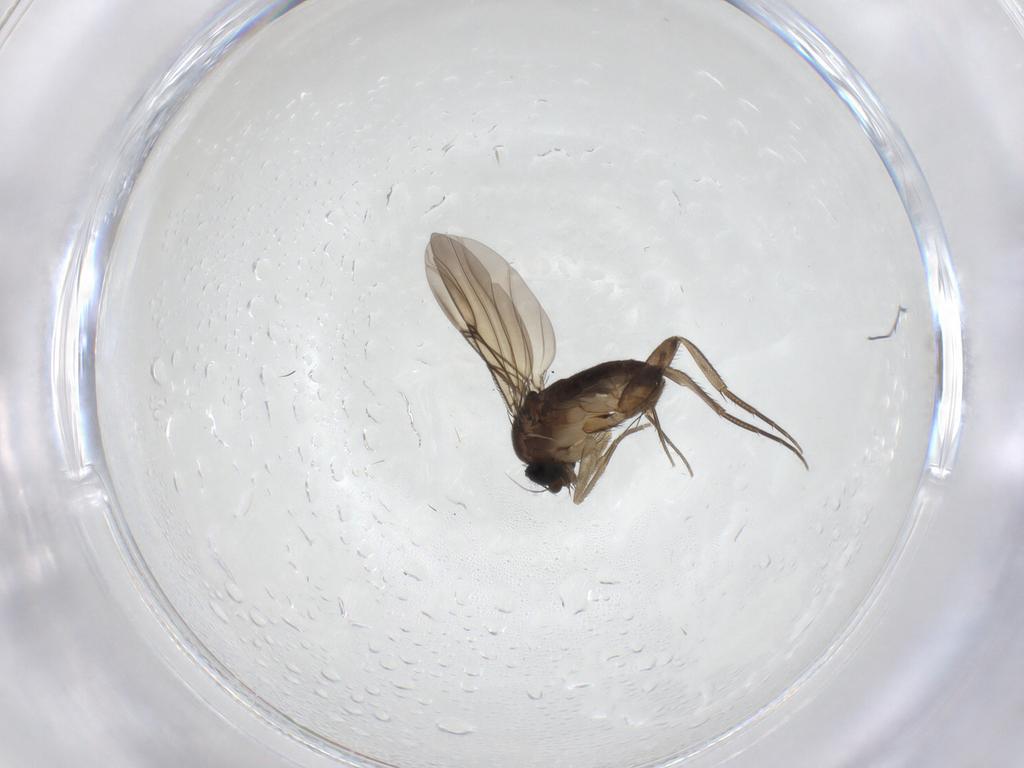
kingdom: Animalia
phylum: Arthropoda
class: Insecta
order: Diptera
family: Phoridae
